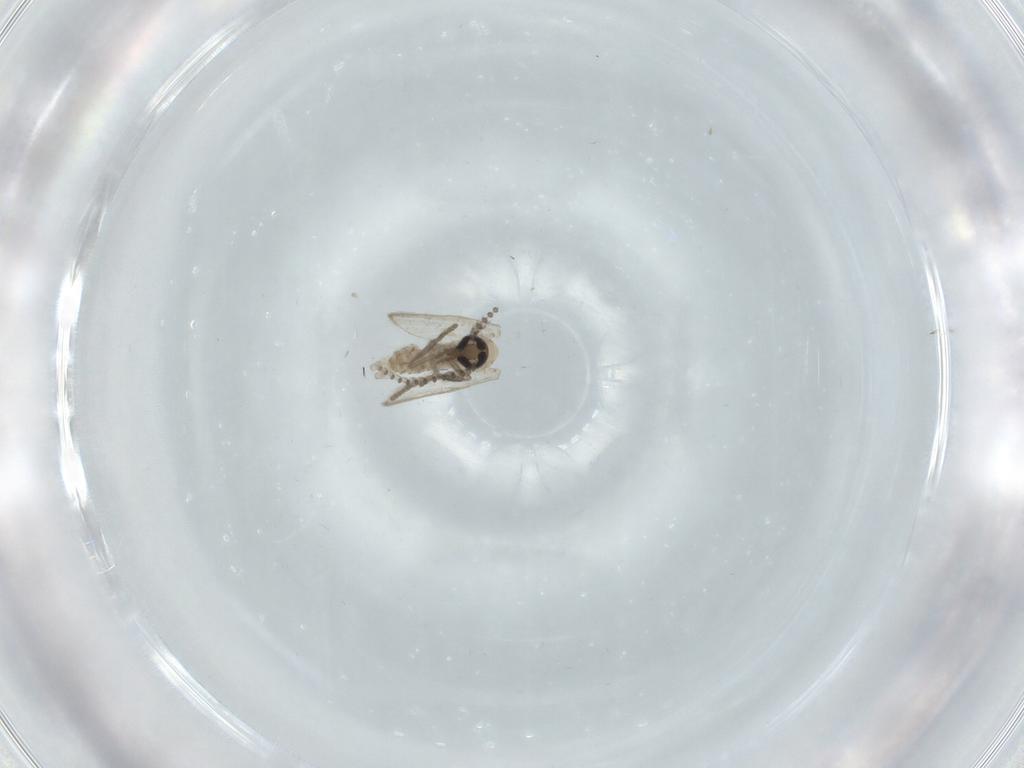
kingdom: Animalia
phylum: Arthropoda
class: Insecta
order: Diptera
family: Psychodidae
